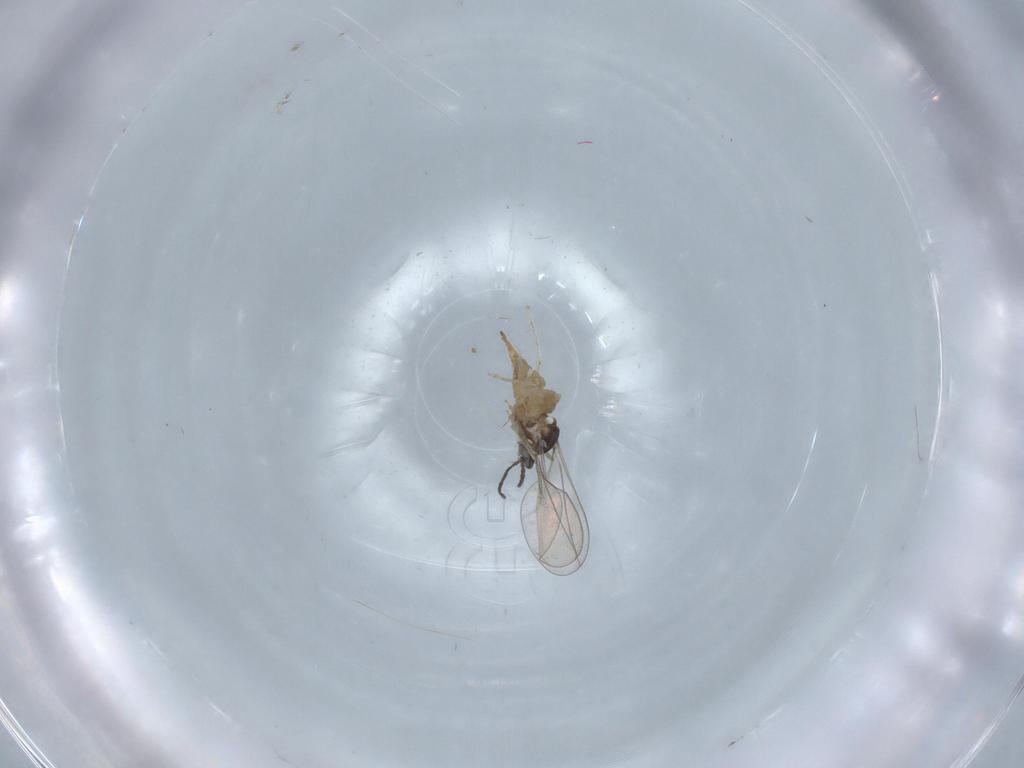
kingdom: Animalia
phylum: Arthropoda
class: Insecta
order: Diptera
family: Cecidomyiidae
